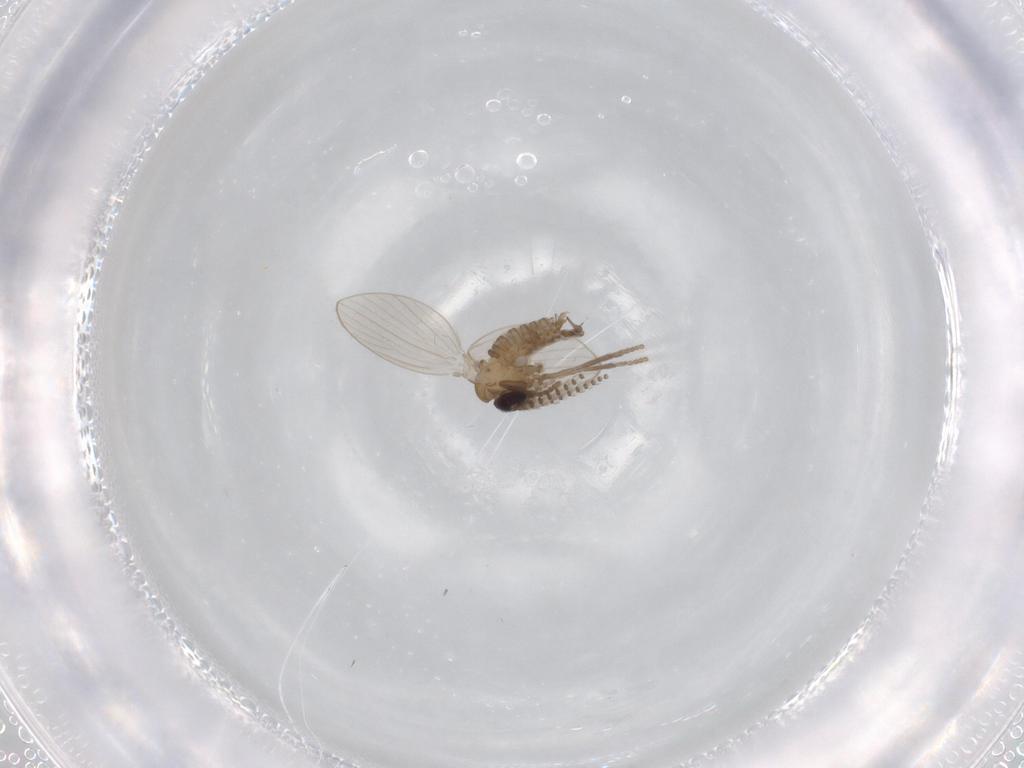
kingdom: Animalia
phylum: Arthropoda
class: Insecta
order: Diptera
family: Psychodidae
